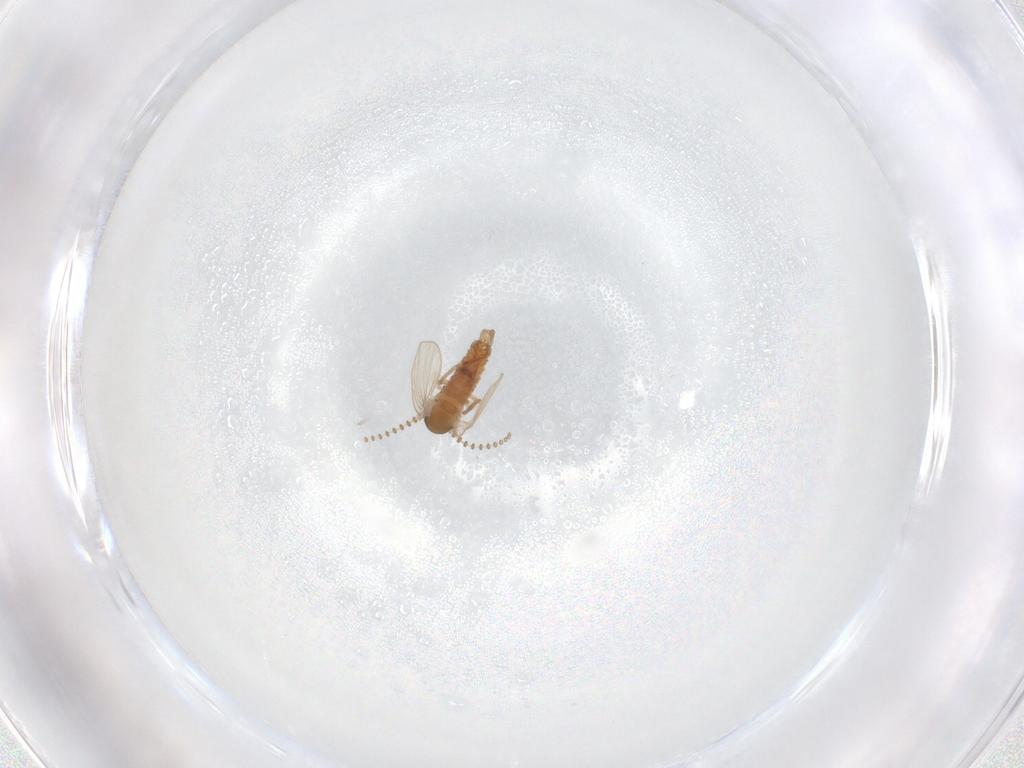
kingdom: Animalia
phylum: Arthropoda
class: Insecta
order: Diptera
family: Psychodidae
